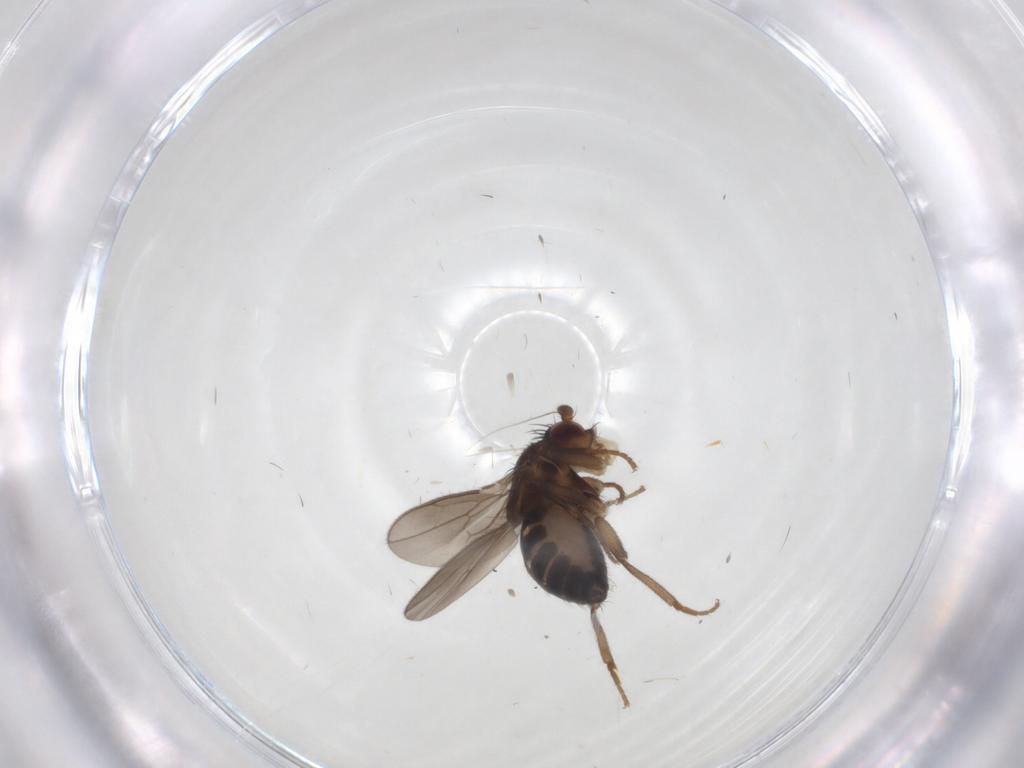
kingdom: Animalia
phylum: Arthropoda
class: Insecta
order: Diptera
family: Sphaeroceridae
